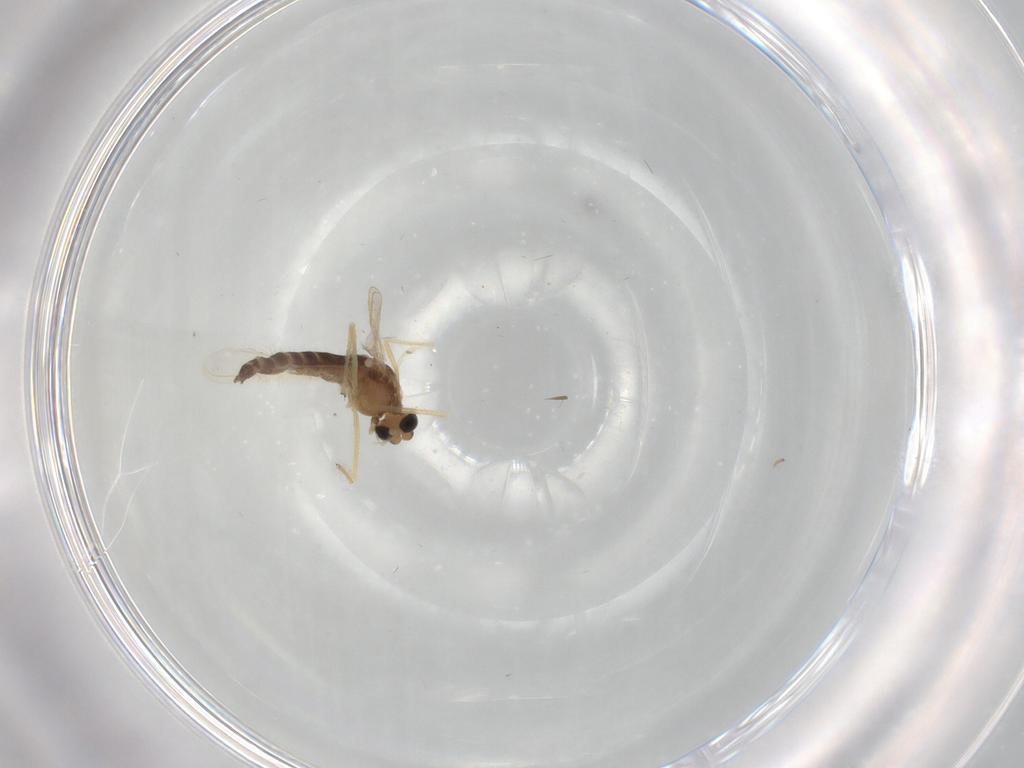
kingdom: Animalia
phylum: Arthropoda
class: Insecta
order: Diptera
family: Chironomidae
